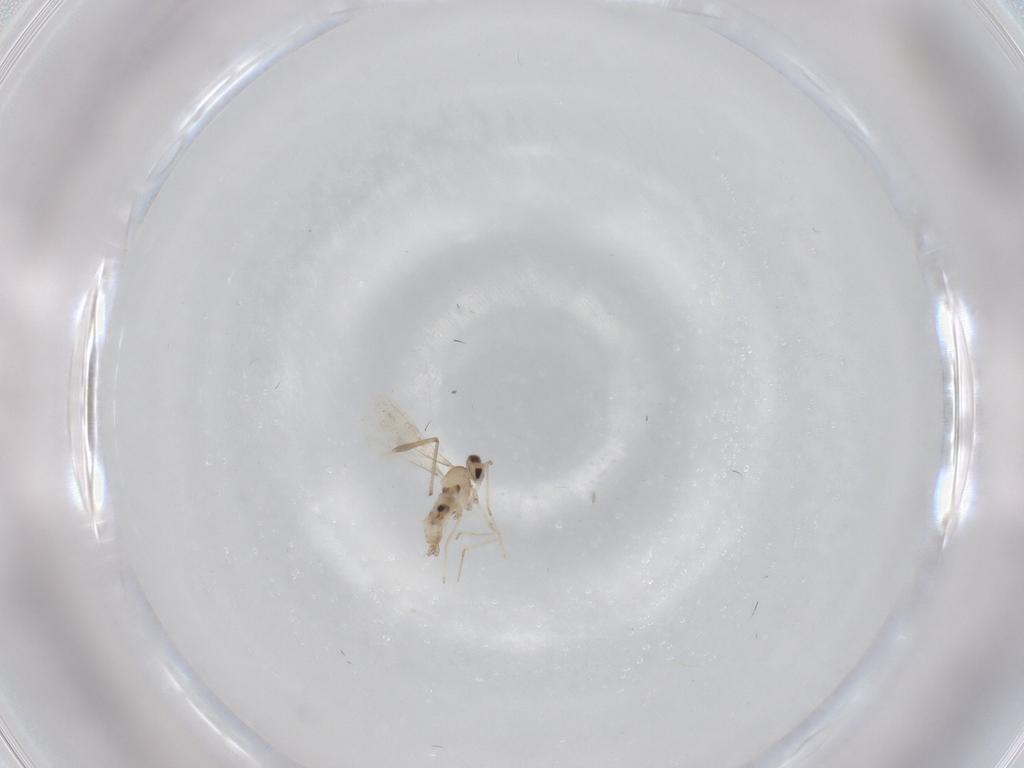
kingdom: Animalia
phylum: Arthropoda
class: Insecta
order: Diptera
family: Cecidomyiidae
